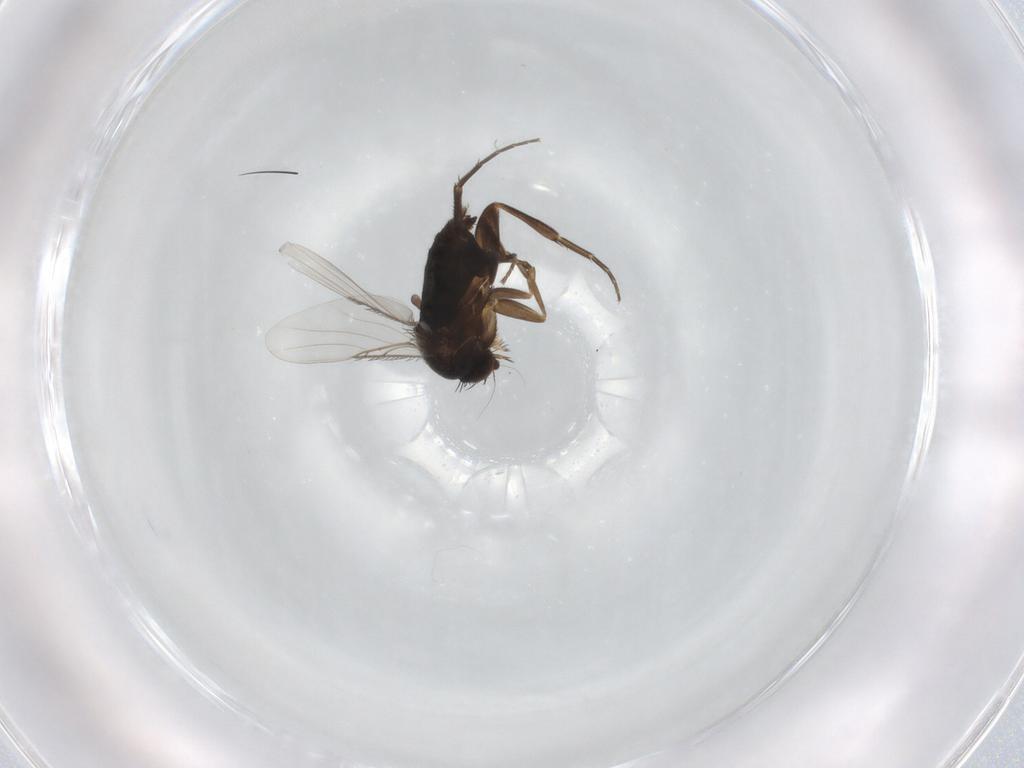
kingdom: Animalia
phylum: Arthropoda
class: Insecta
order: Diptera
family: Phoridae
